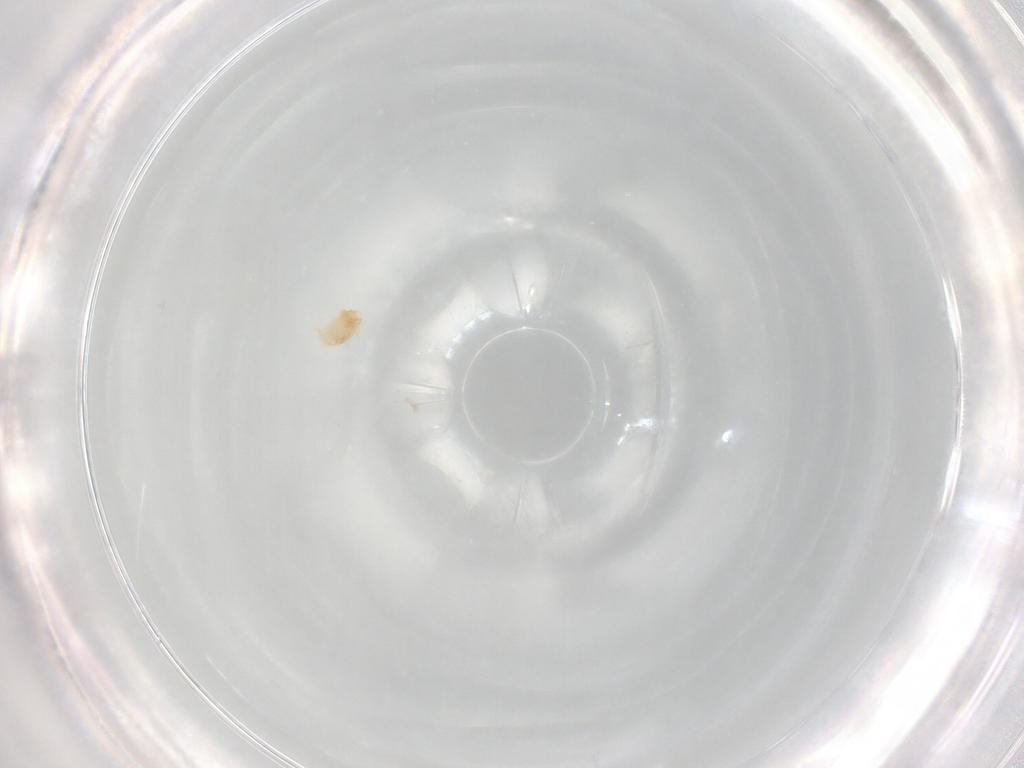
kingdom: Animalia
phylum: Arthropoda
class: Arachnida
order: Trombidiformes
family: Eupodidae
